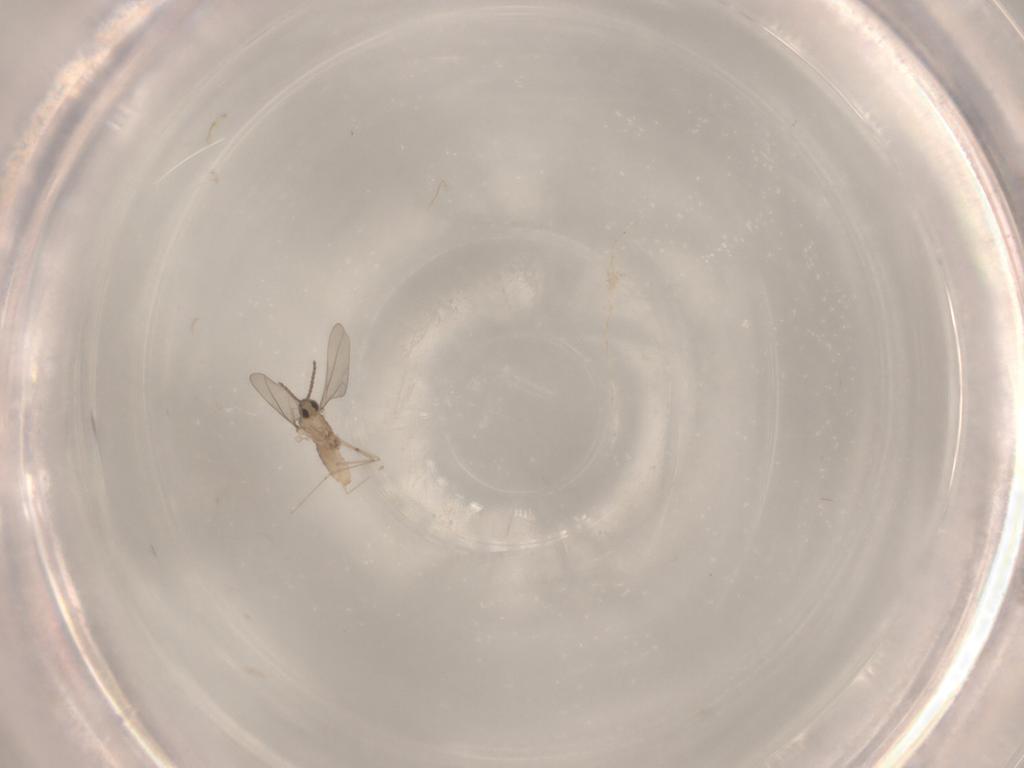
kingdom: Animalia
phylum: Arthropoda
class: Insecta
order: Diptera
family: Cecidomyiidae
